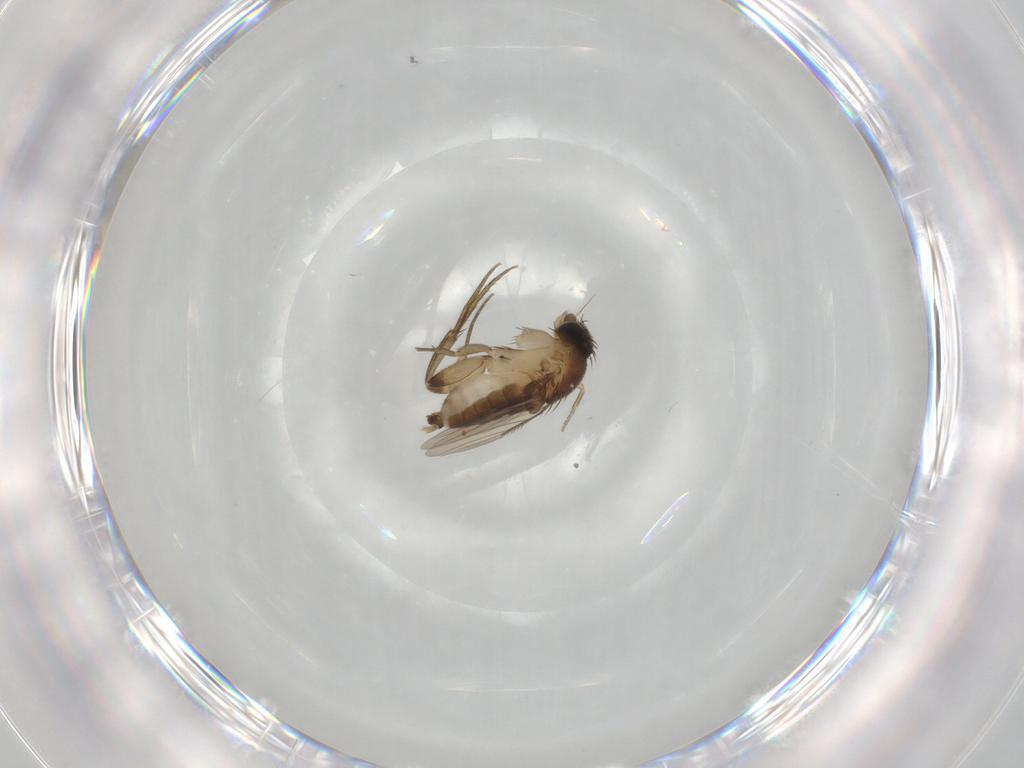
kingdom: Animalia
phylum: Arthropoda
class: Insecta
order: Diptera
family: Phoridae
